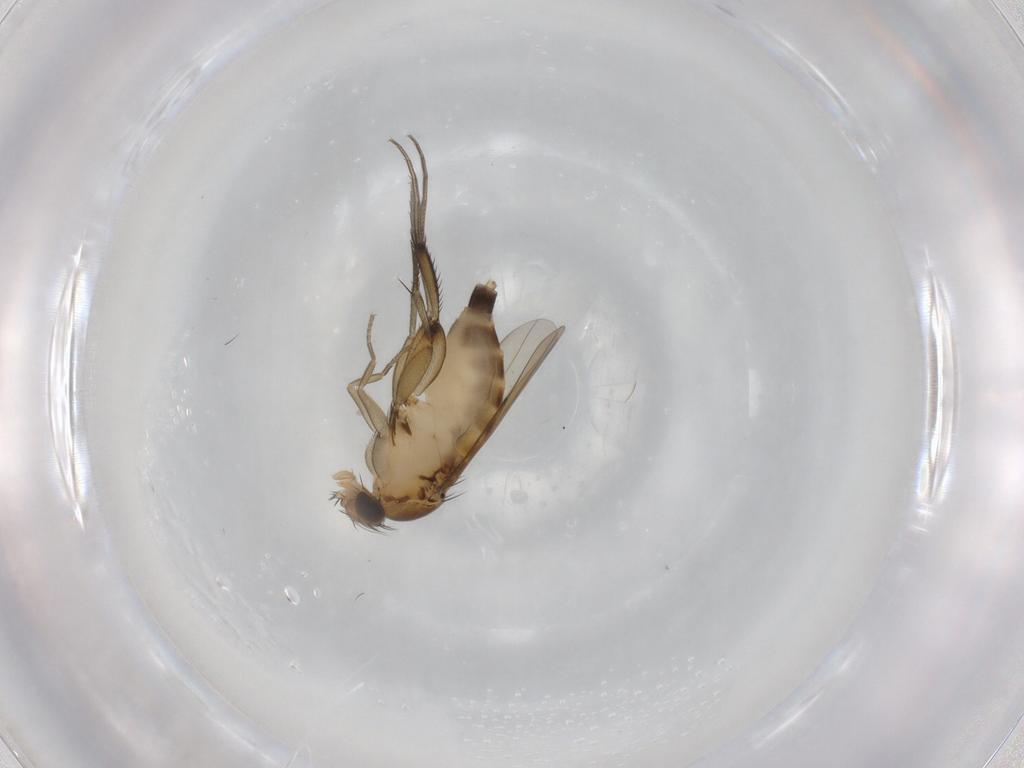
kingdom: Animalia
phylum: Arthropoda
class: Insecta
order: Diptera
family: Phoridae
